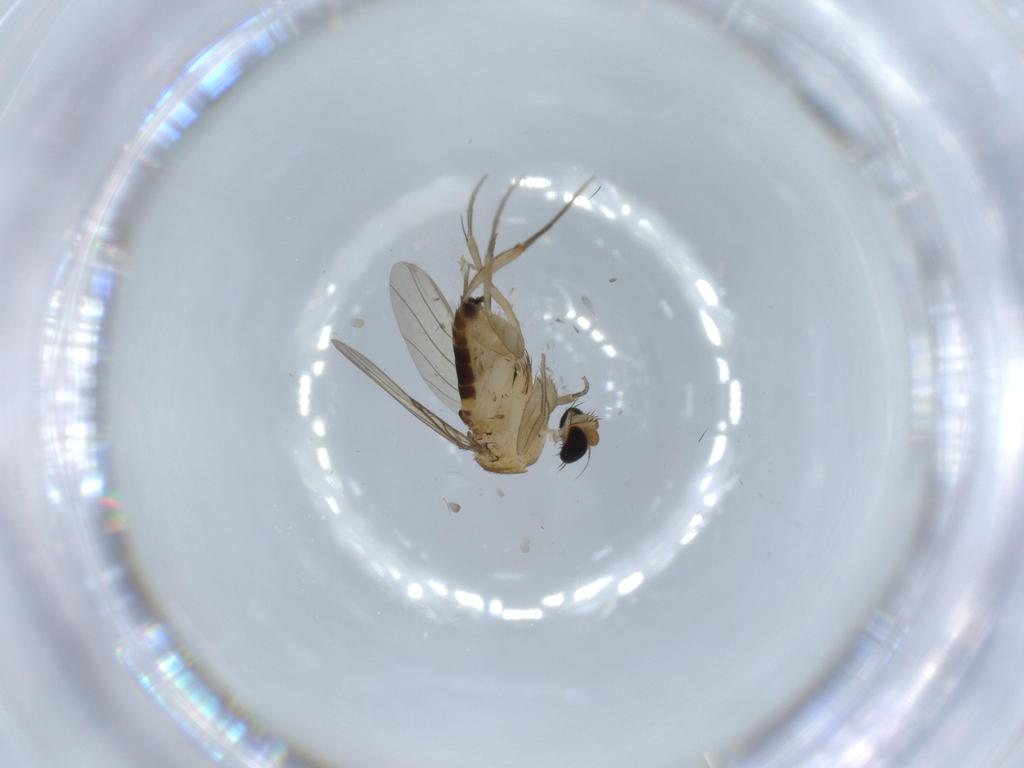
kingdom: Animalia
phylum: Arthropoda
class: Insecta
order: Diptera
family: Phoridae
